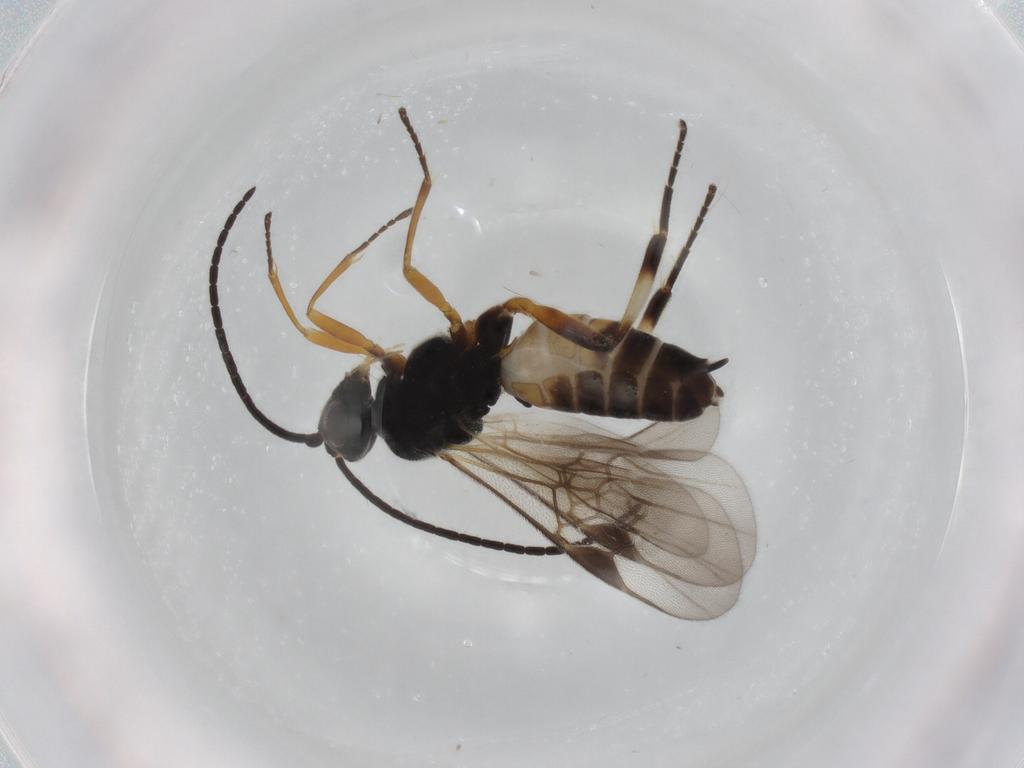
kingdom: Animalia
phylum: Arthropoda
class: Insecta
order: Hymenoptera
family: Braconidae
